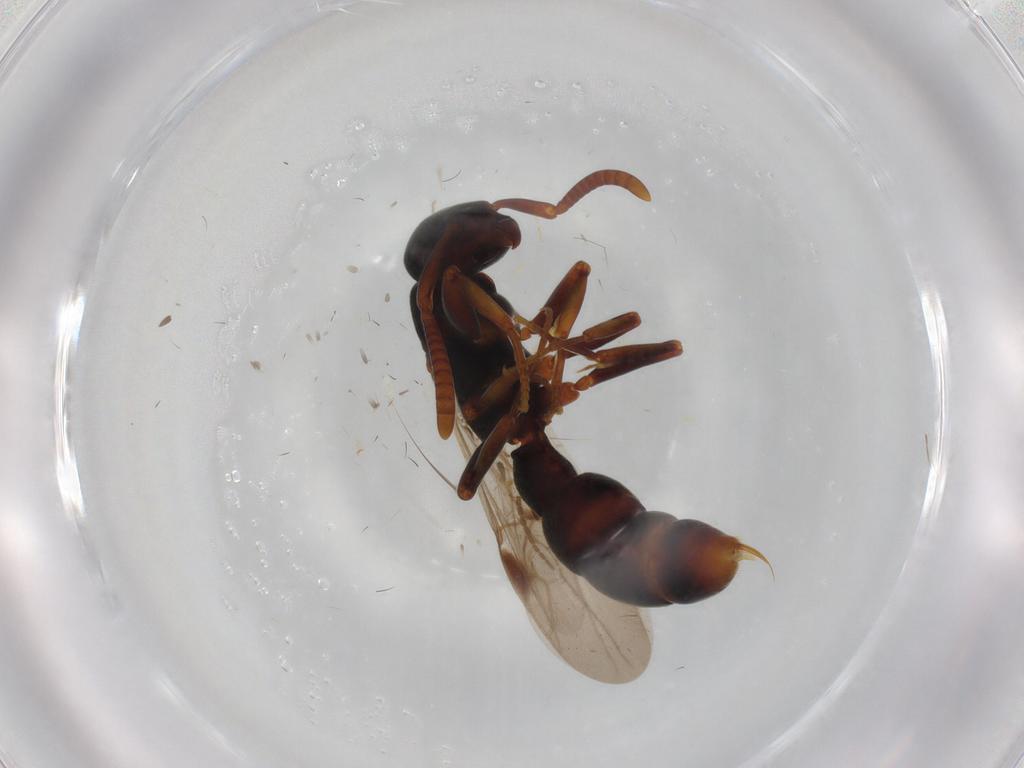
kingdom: Animalia
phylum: Arthropoda
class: Insecta
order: Hymenoptera
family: Formicidae
